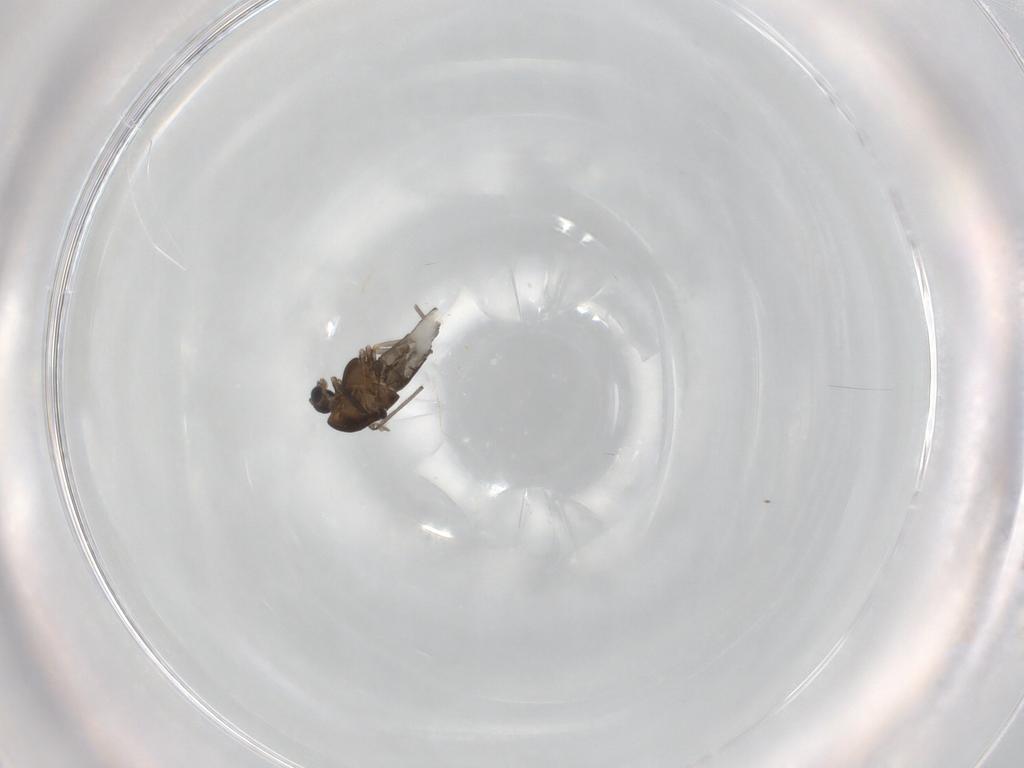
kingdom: Animalia
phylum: Arthropoda
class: Insecta
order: Diptera
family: Chironomidae
